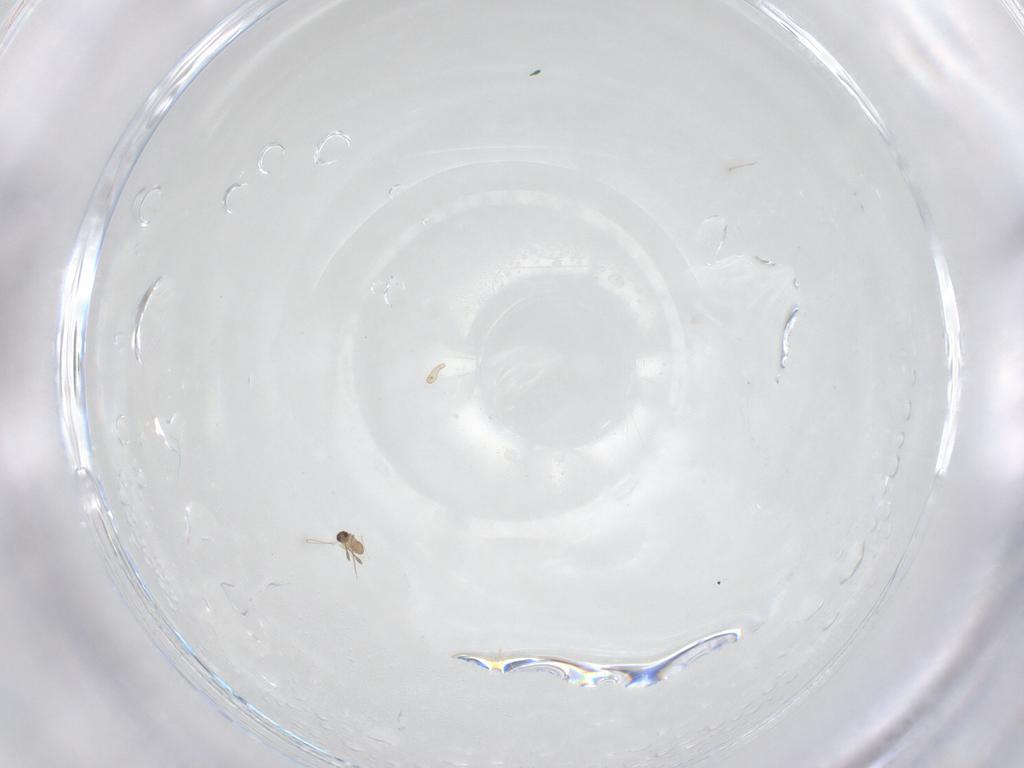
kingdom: Animalia
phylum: Arthropoda
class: Insecta
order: Hymenoptera
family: Mymaridae
